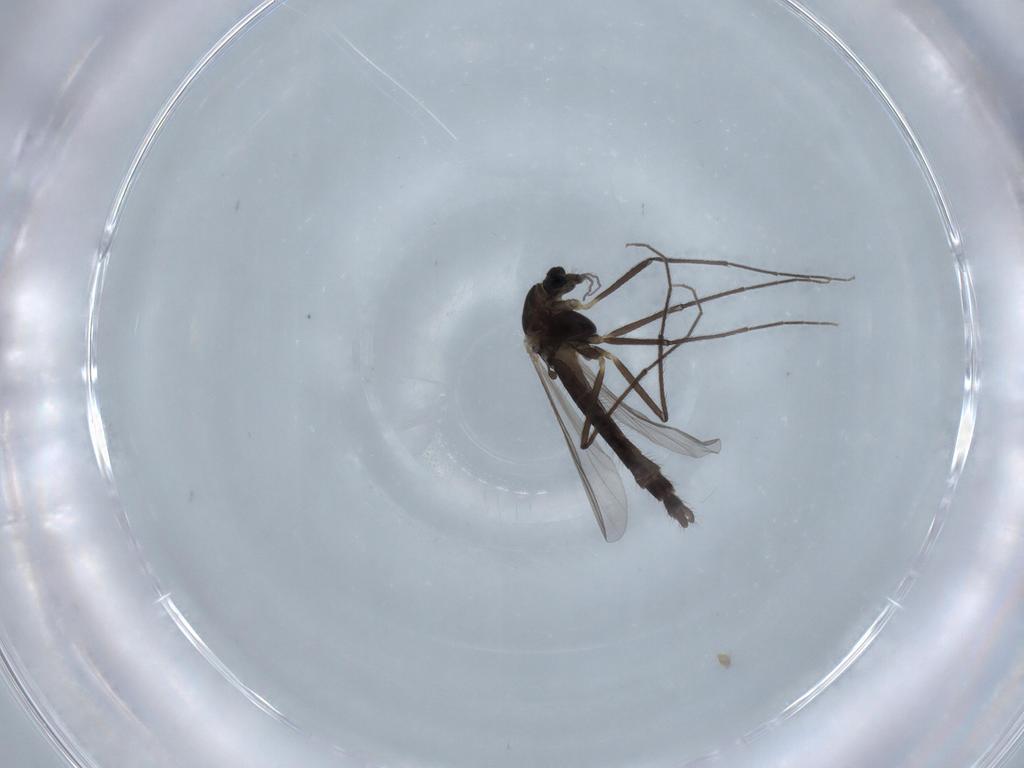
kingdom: Animalia
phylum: Arthropoda
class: Insecta
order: Diptera
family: Chironomidae
